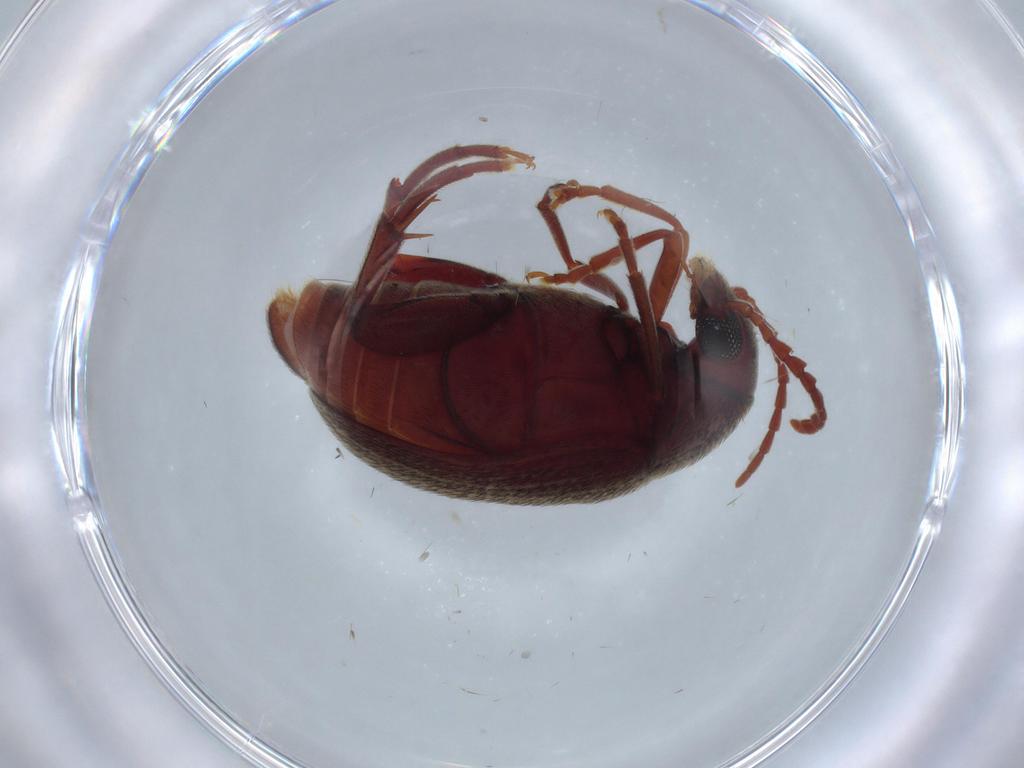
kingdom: Animalia
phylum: Arthropoda
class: Insecta
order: Coleoptera
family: Chrysomelidae
